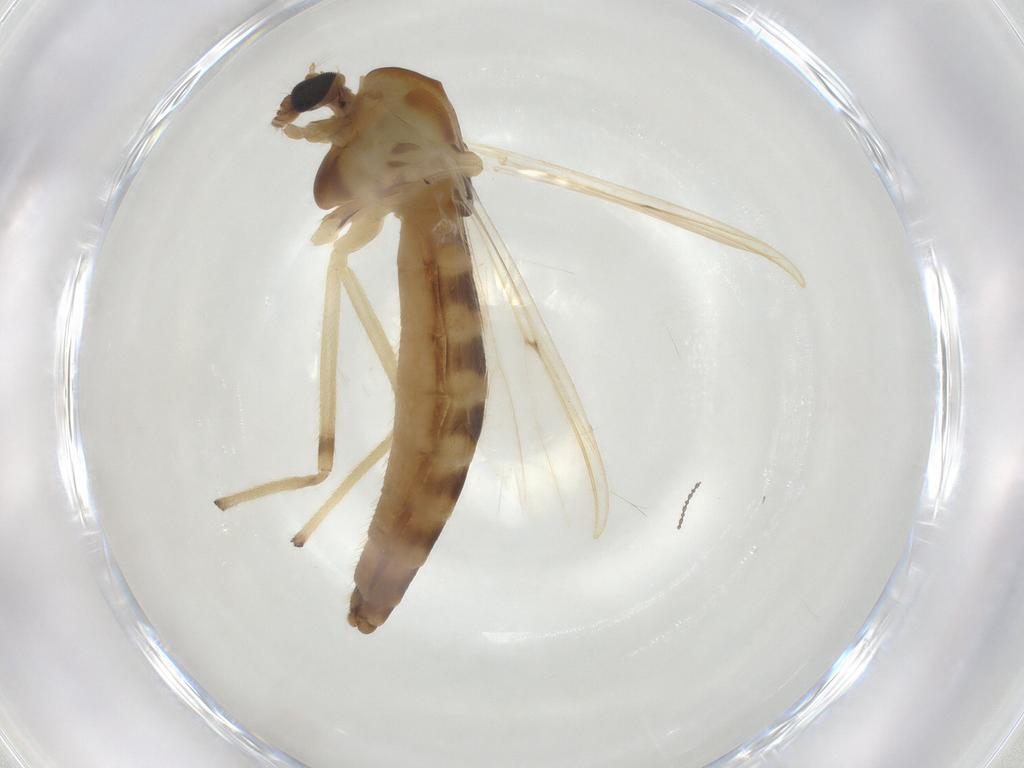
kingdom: Animalia
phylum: Arthropoda
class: Insecta
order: Diptera
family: Chironomidae
